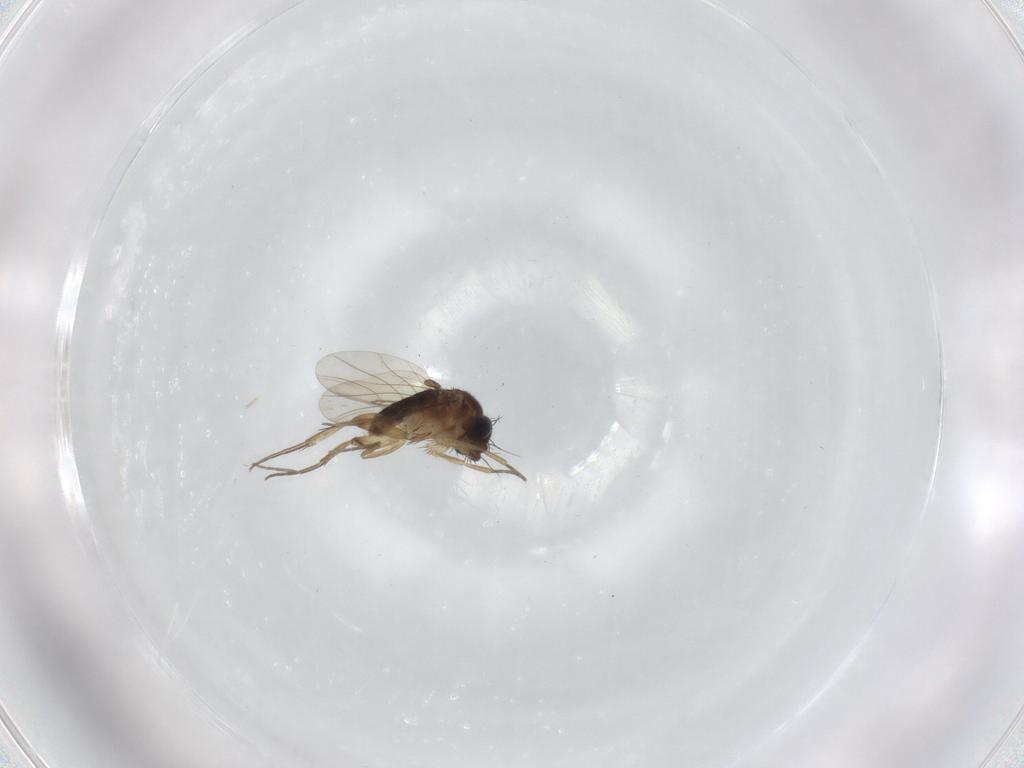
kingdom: Animalia
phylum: Arthropoda
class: Insecta
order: Diptera
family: Phoridae
